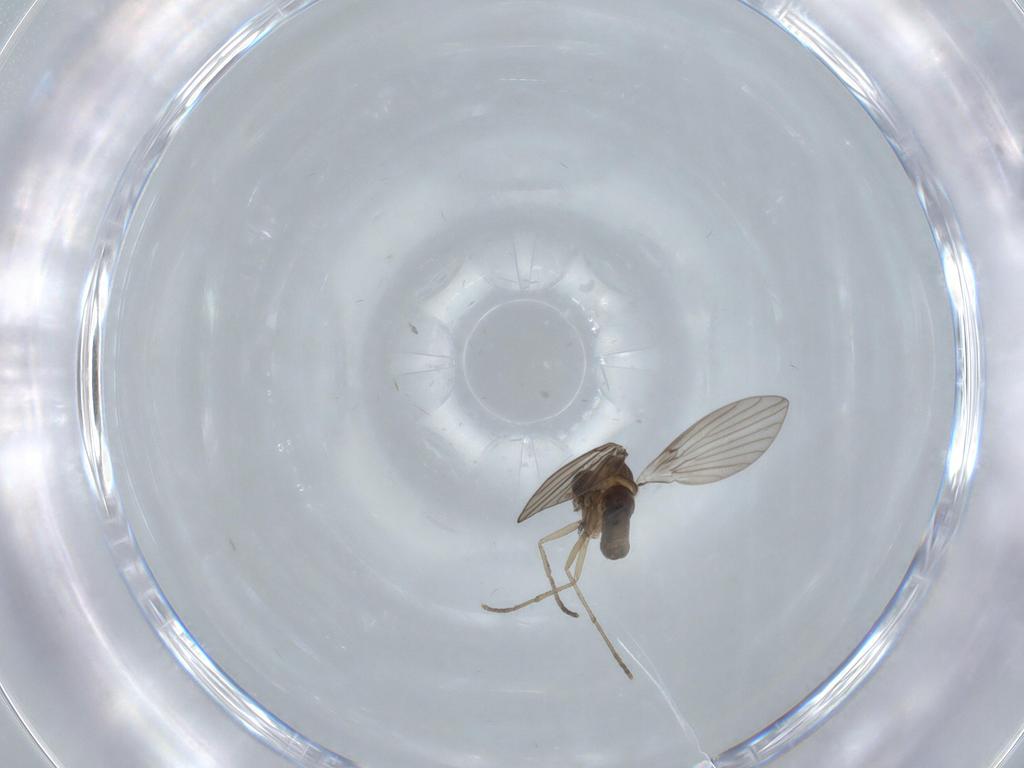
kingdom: Animalia
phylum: Arthropoda
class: Insecta
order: Diptera
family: Psychodidae
